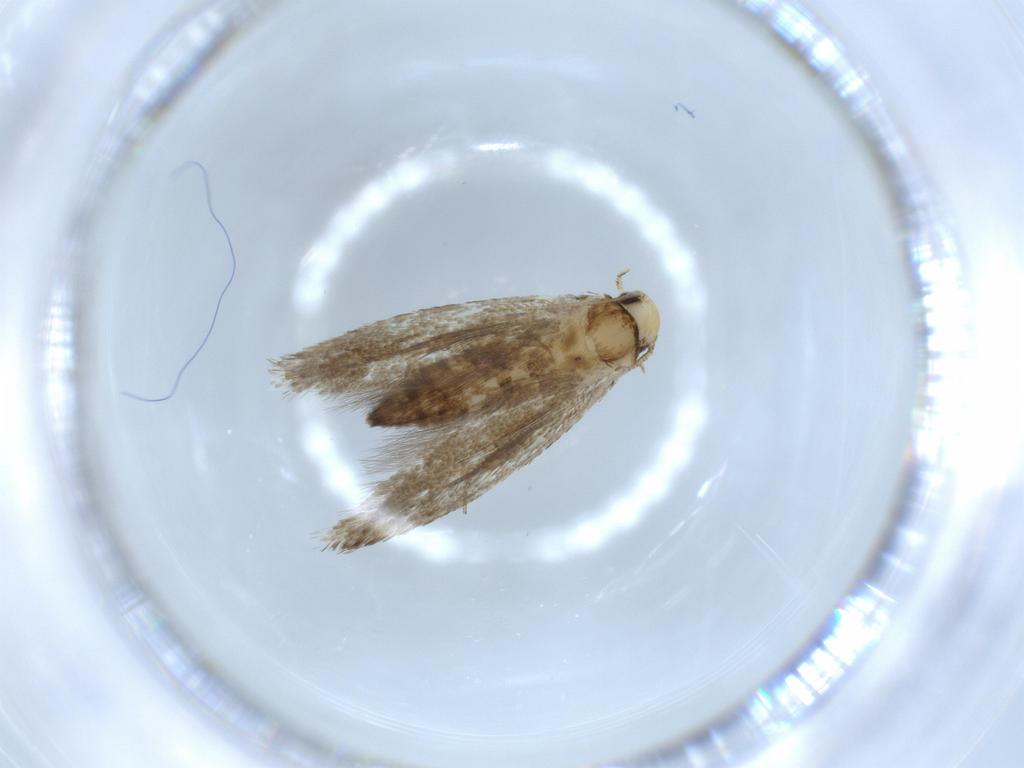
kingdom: Animalia
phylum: Arthropoda
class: Insecta
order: Lepidoptera
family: Tineidae
